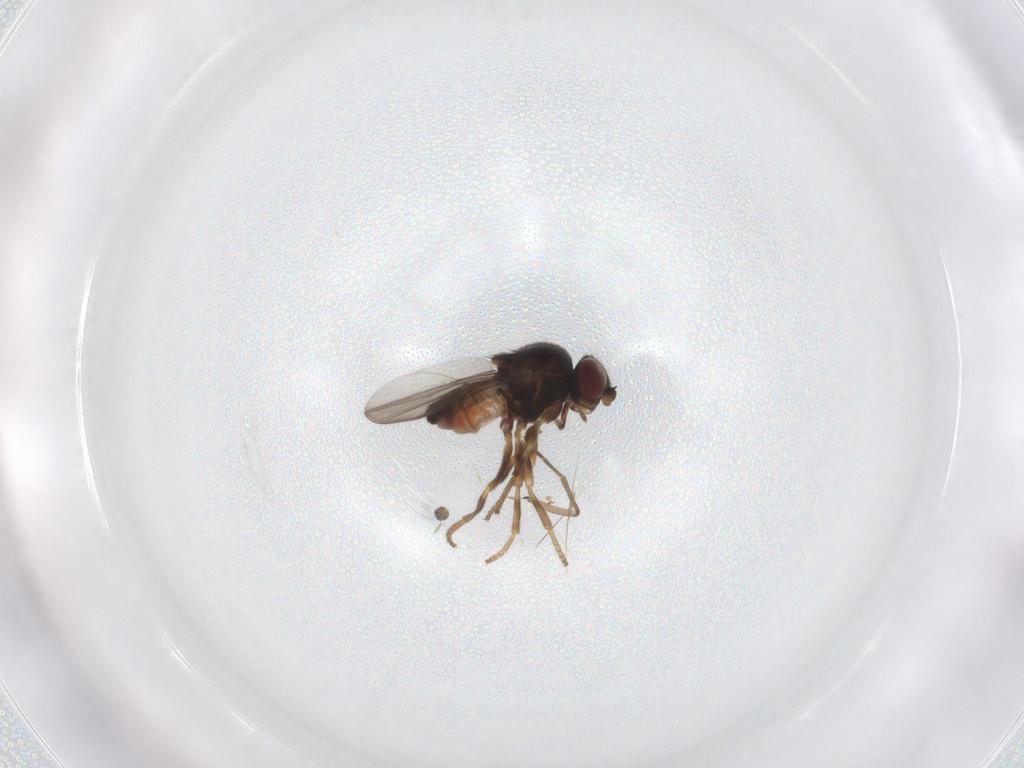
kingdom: Animalia
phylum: Arthropoda
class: Insecta
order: Diptera
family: Chloropidae
